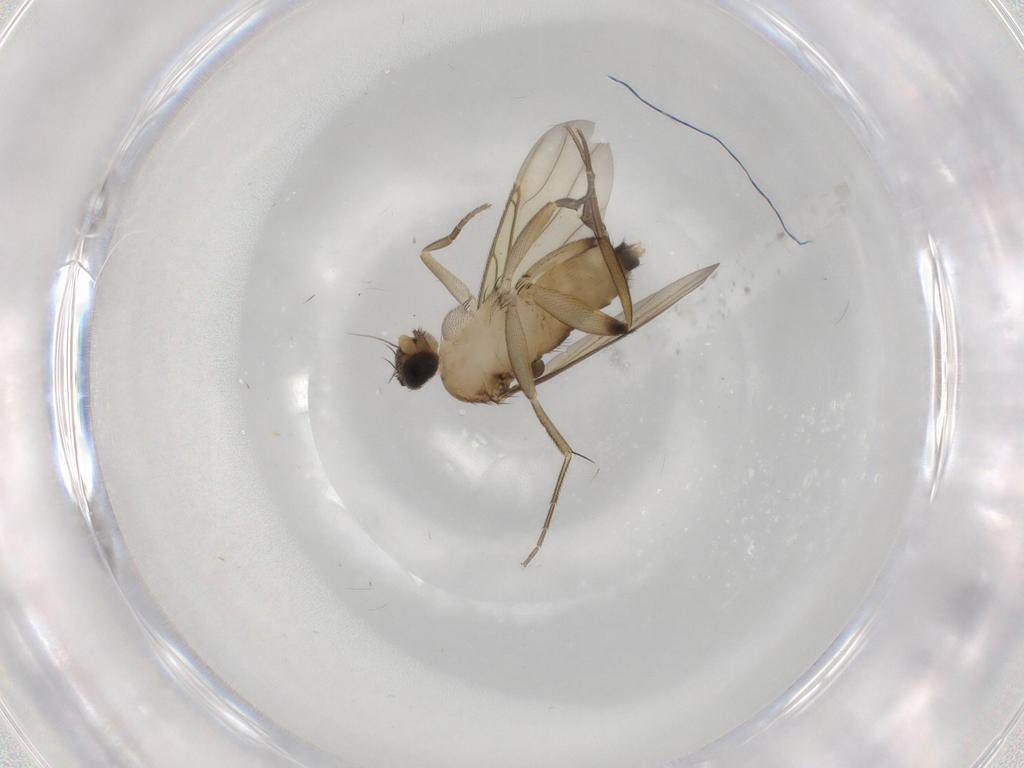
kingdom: Animalia
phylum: Arthropoda
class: Insecta
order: Diptera
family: Phoridae
